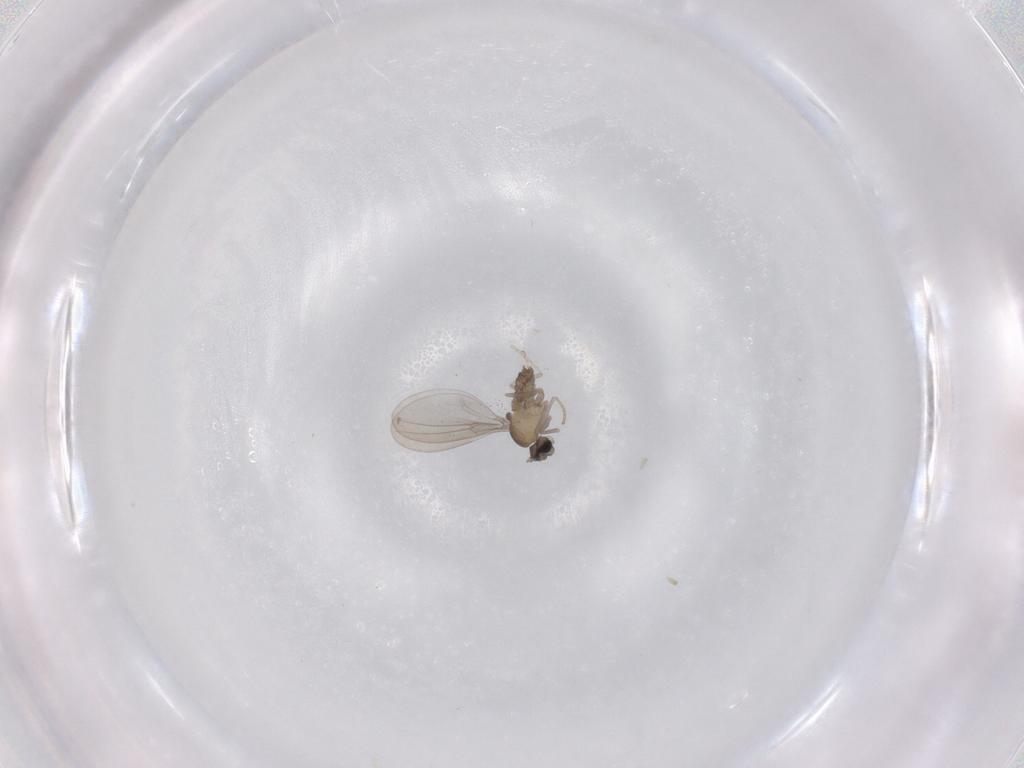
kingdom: Animalia
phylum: Arthropoda
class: Insecta
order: Diptera
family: Cecidomyiidae
